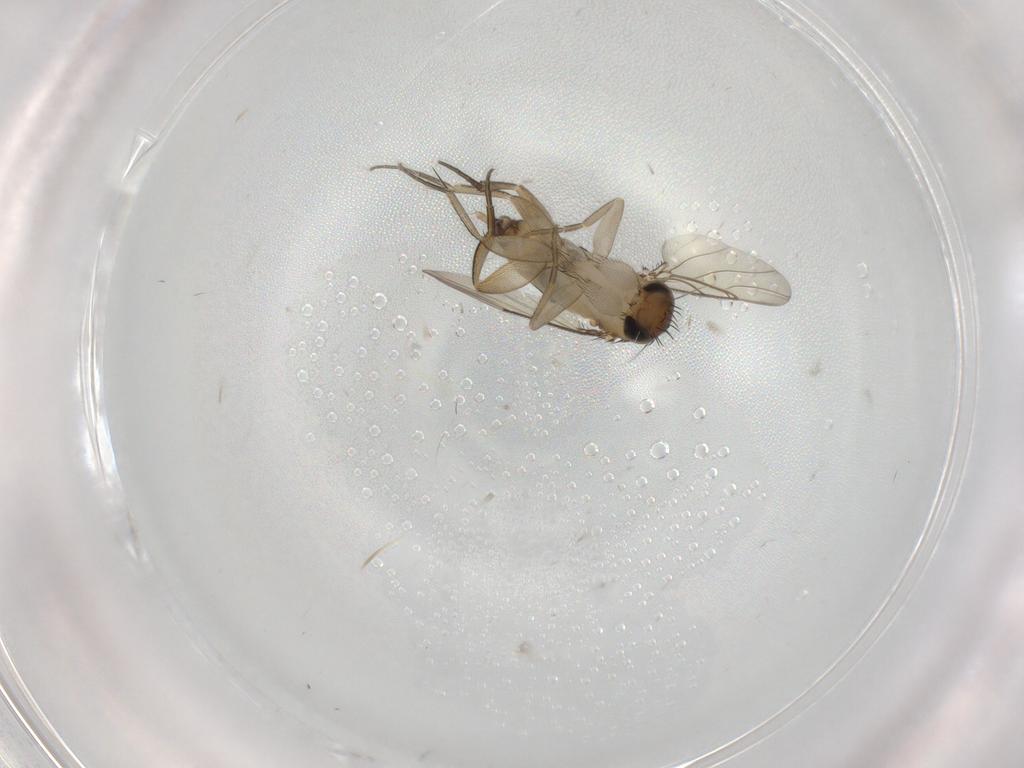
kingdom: Animalia
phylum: Arthropoda
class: Insecta
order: Diptera
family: Phoridae
